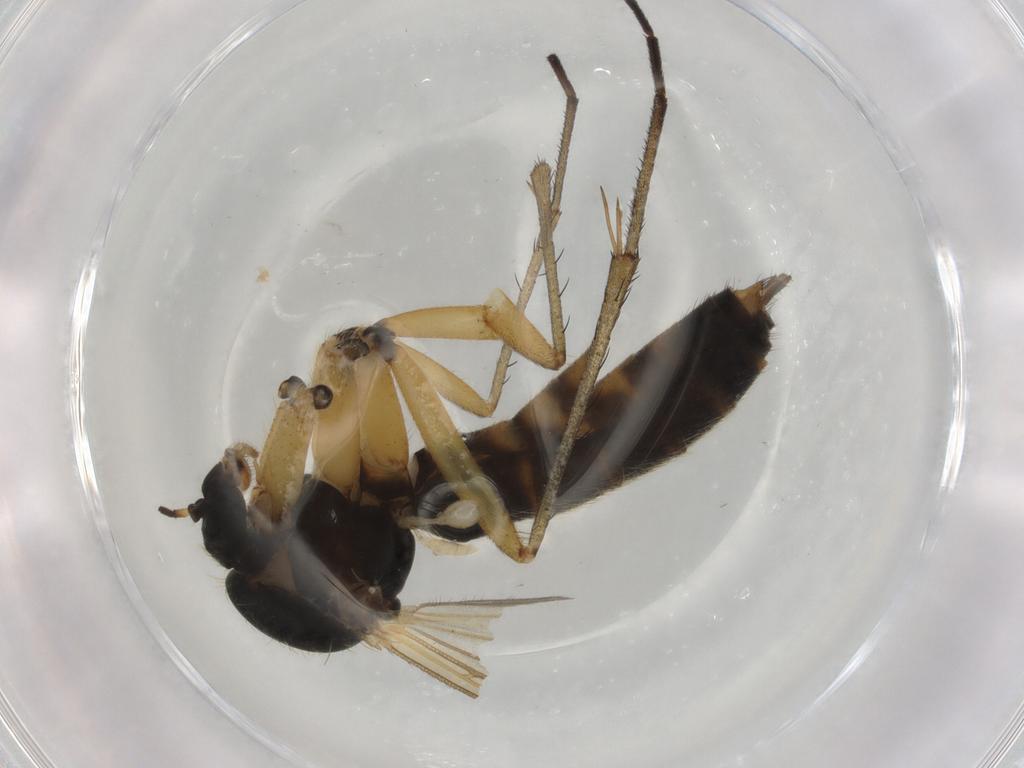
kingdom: Animalia
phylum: Arthropoda
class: Insecta
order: Diptera
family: Mycetophilidae
